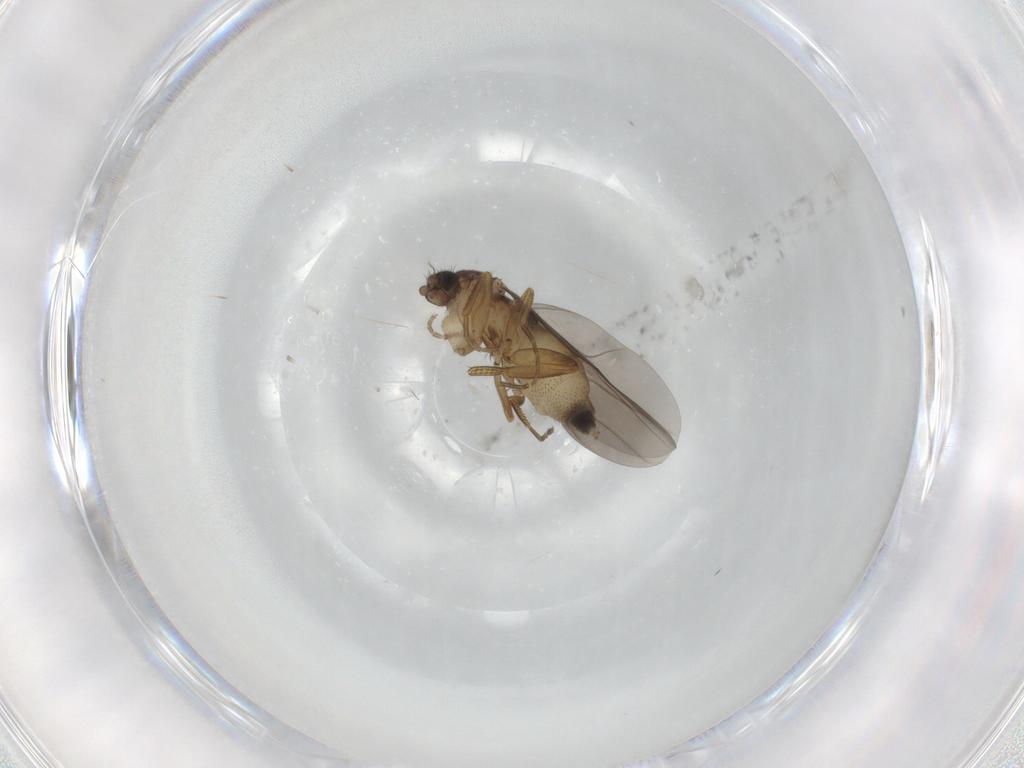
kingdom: Animalia
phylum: Arthropoda
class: Insecta
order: Diptera
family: Phoridae
